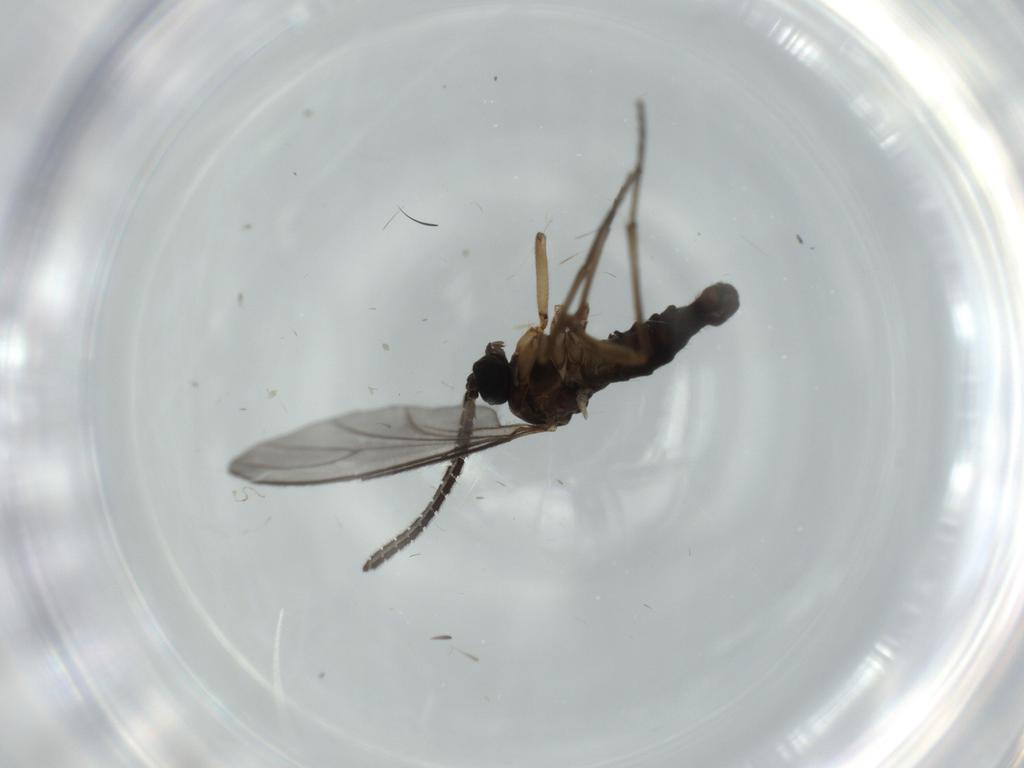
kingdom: Animalia
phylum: Arthropoda
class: Insecta
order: Diptera
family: Sciaridae
